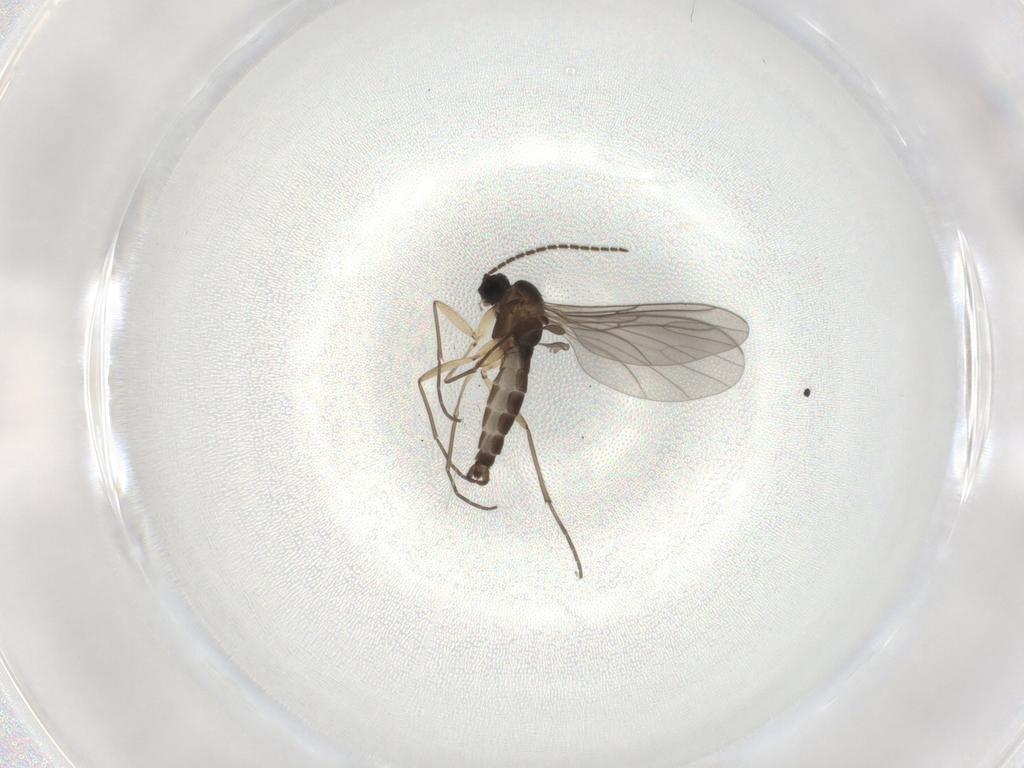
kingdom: Animalia
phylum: Arthropoda
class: Insecta
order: Diptera
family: Sciaridae
